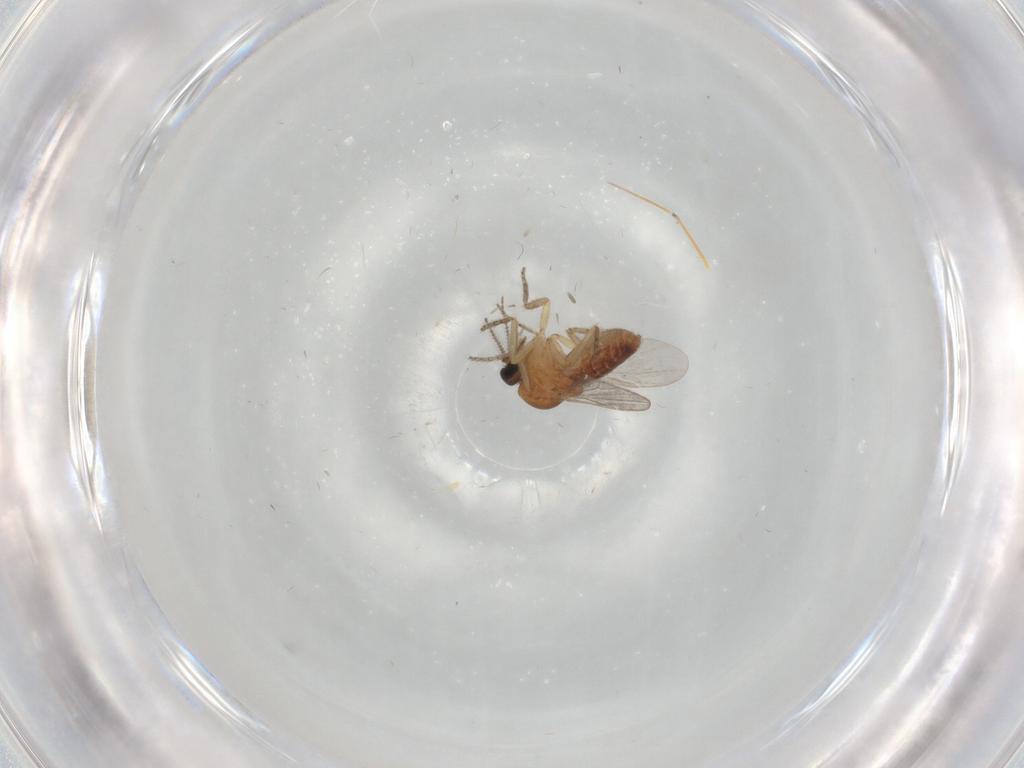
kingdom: Animalia
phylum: Arthropoda
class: Insecta
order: Diptera
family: Ceratopogonidae
